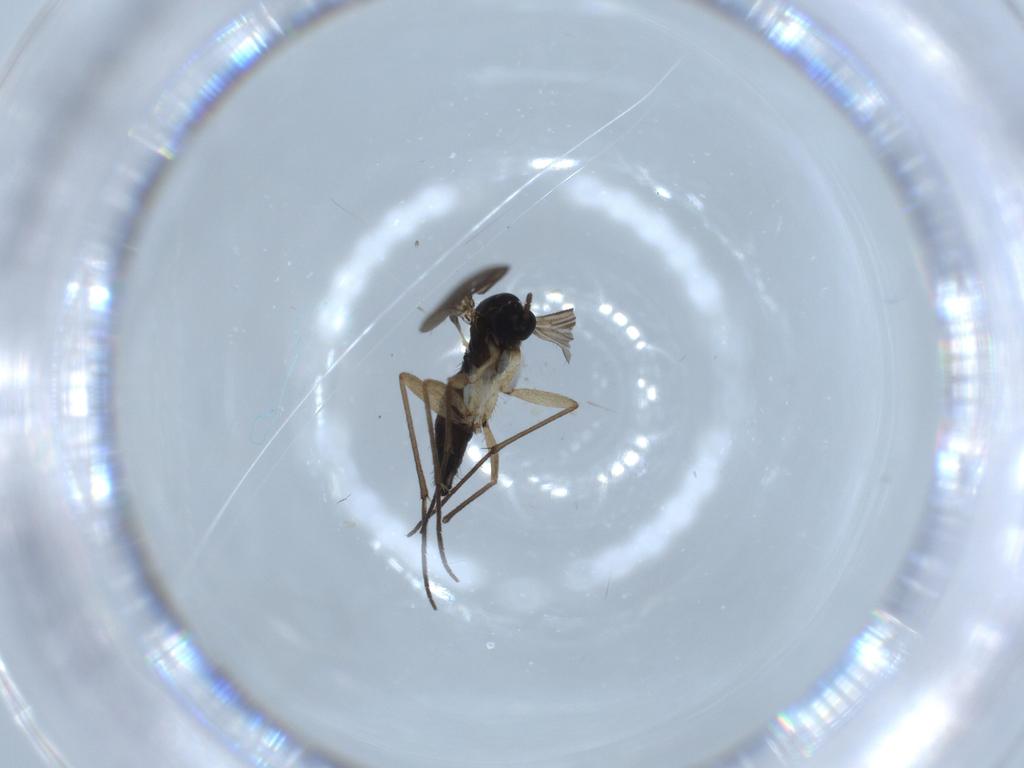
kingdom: Animalia
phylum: Arthropoda
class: Insecta
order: Diptera
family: Sciaridae
